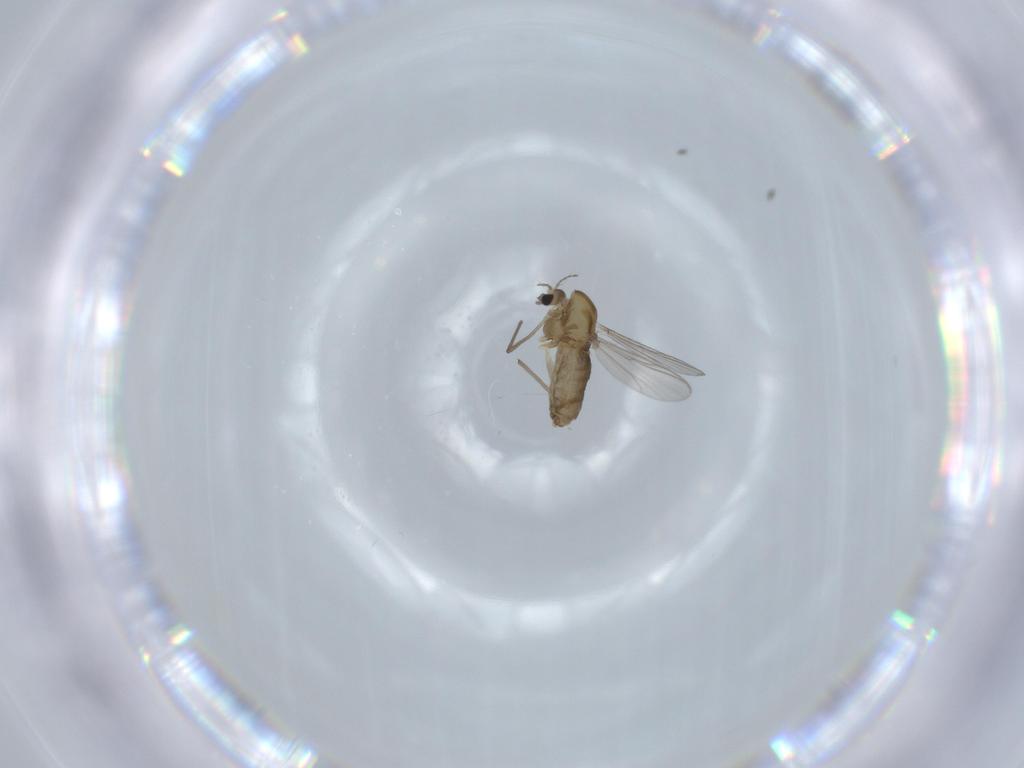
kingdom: Animalia
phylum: Arthropoda
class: Insecta
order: Diptera
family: Chironomidae
